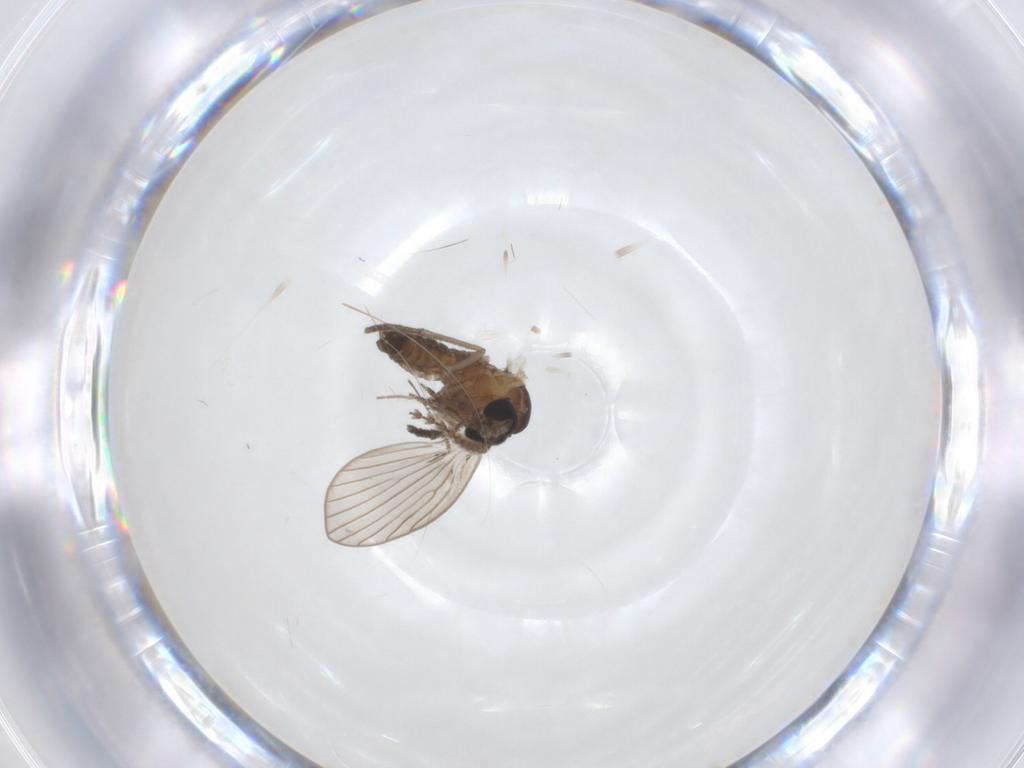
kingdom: Animalia
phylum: Arthropoda
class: Insecta
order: Diptera
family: Psychodidae
